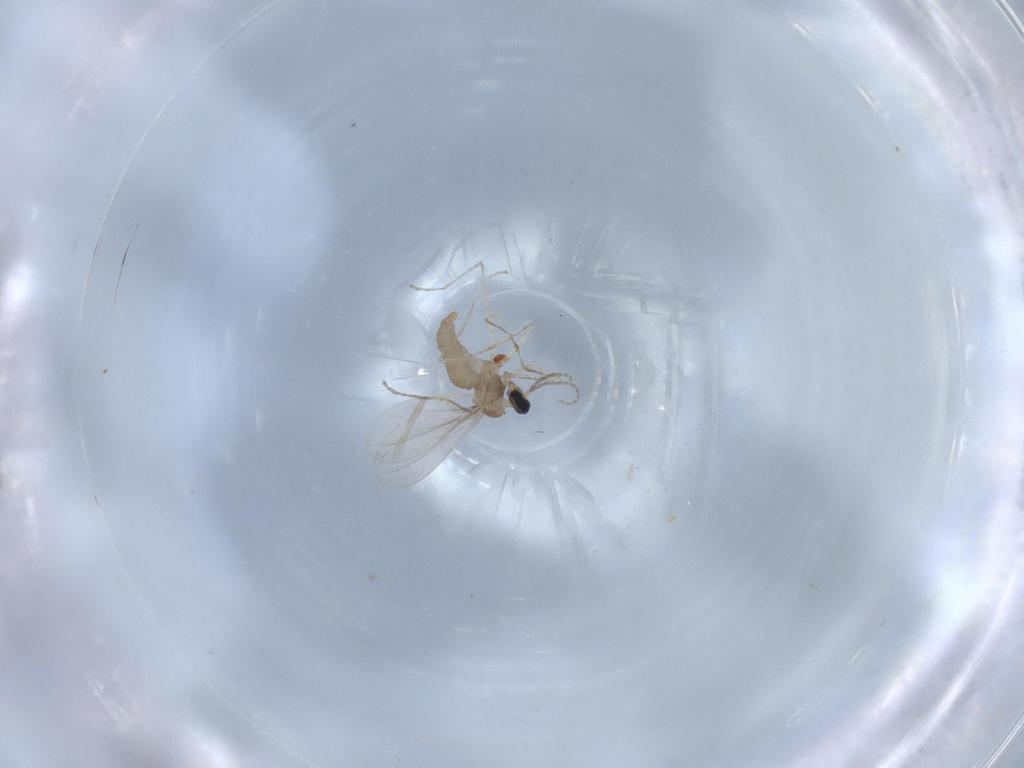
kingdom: Animalia
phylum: Arthropoda
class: Insecta
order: Diptera
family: Chironomidae
